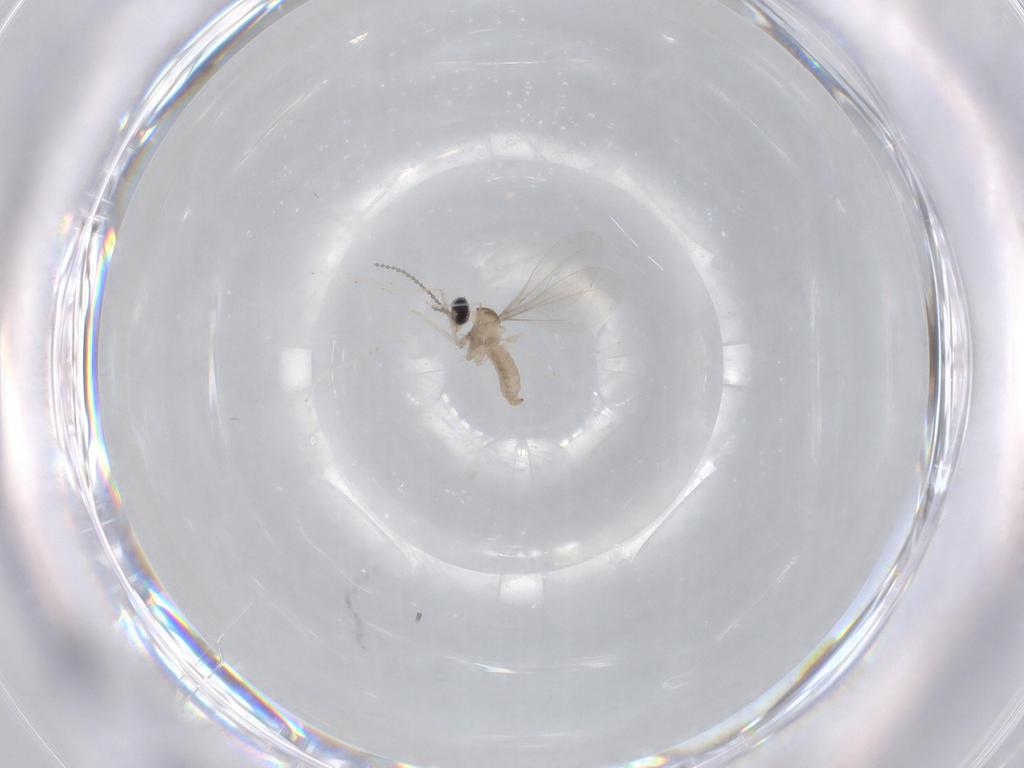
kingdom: Animalia
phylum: Arthropoda
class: Insecta
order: Diptera
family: Cecidomyiidae
